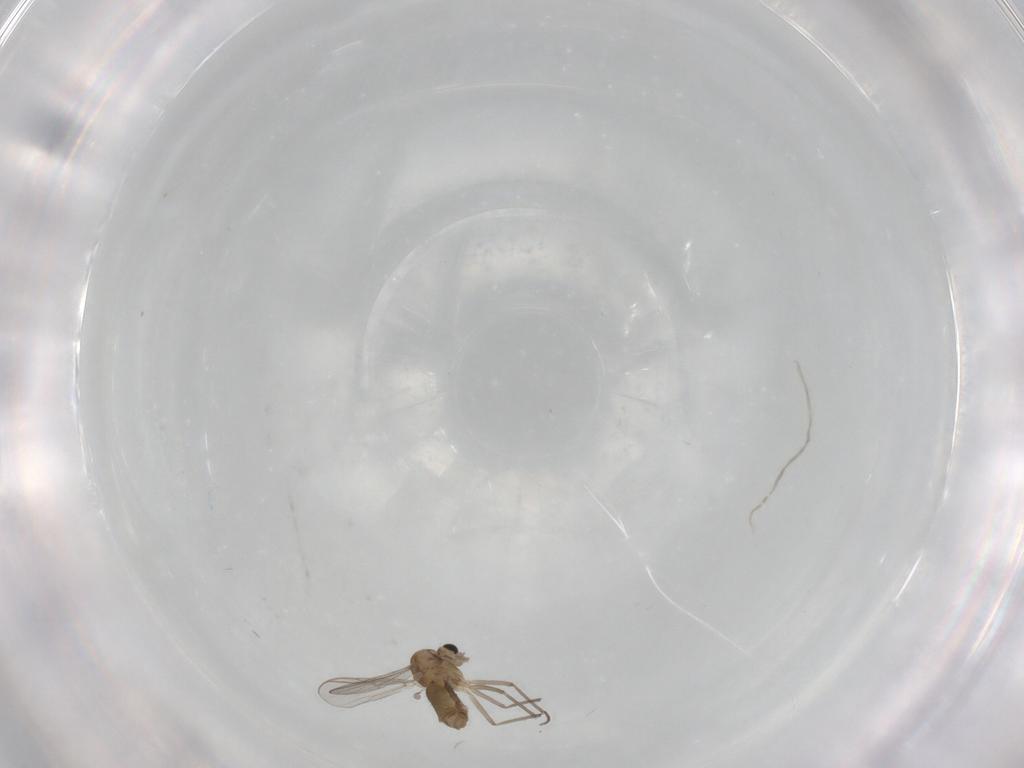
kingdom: Animalia
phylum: Arthropoda
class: Insecta
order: Diptera
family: Chironomidae
